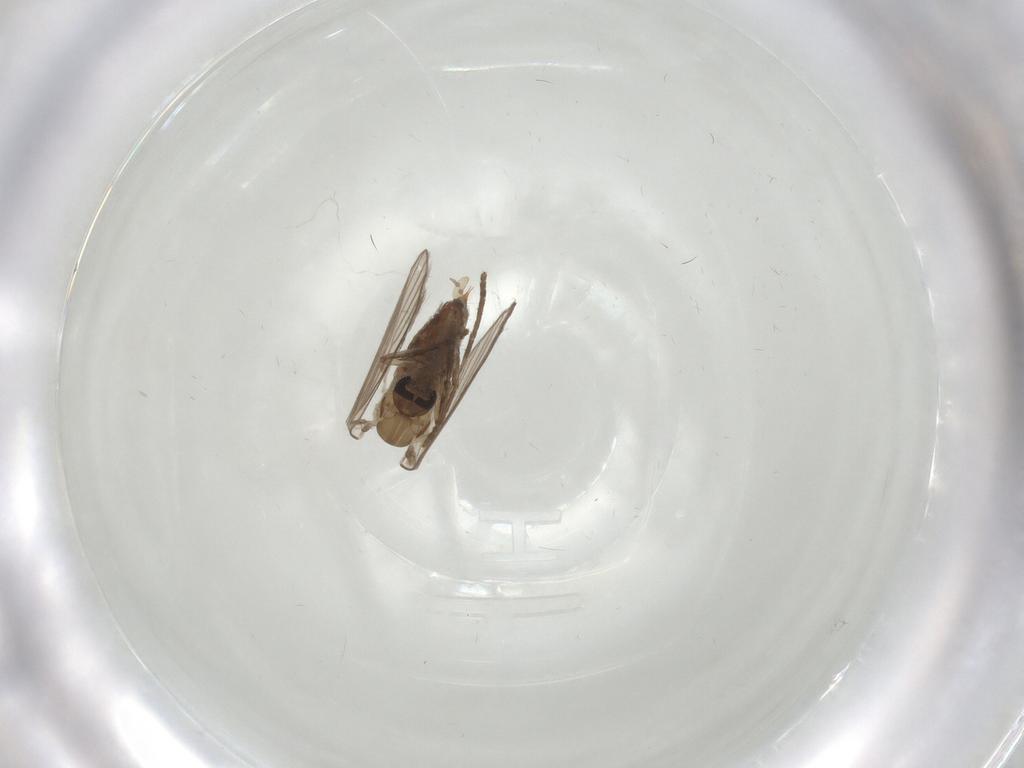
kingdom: Animalia
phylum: Arthropoda
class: Insecta
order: Diptera
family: Psychodidae
